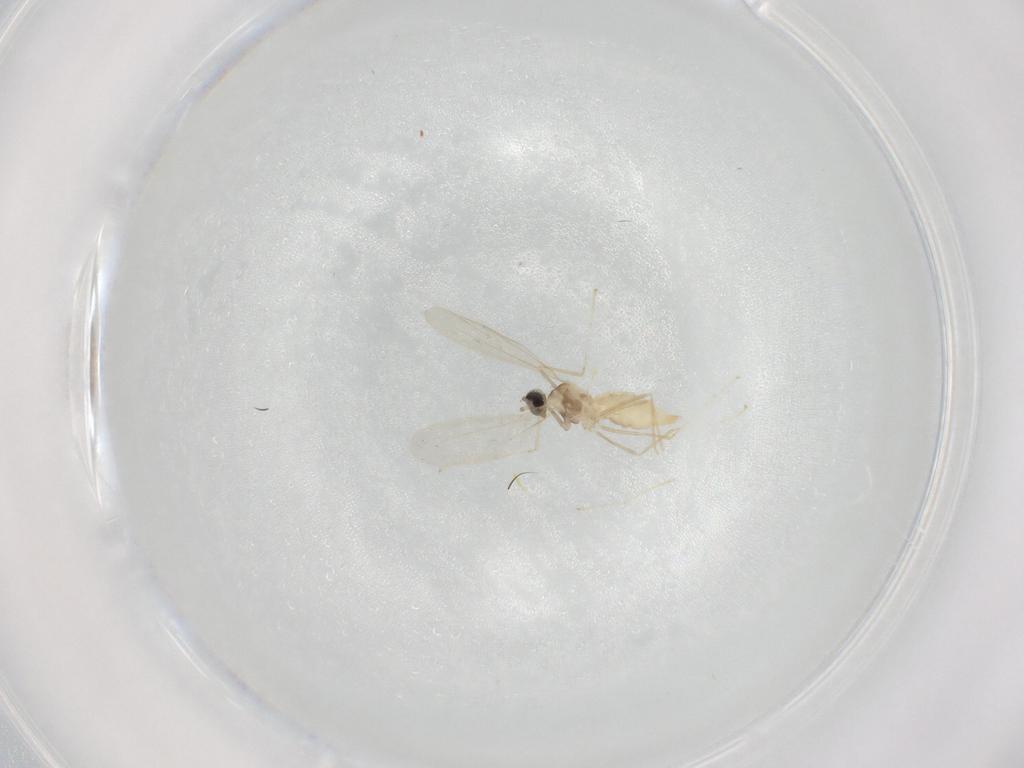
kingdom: Animalia
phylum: Arthropoda
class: Insecta
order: Diptera
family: Cecidomyiidae
